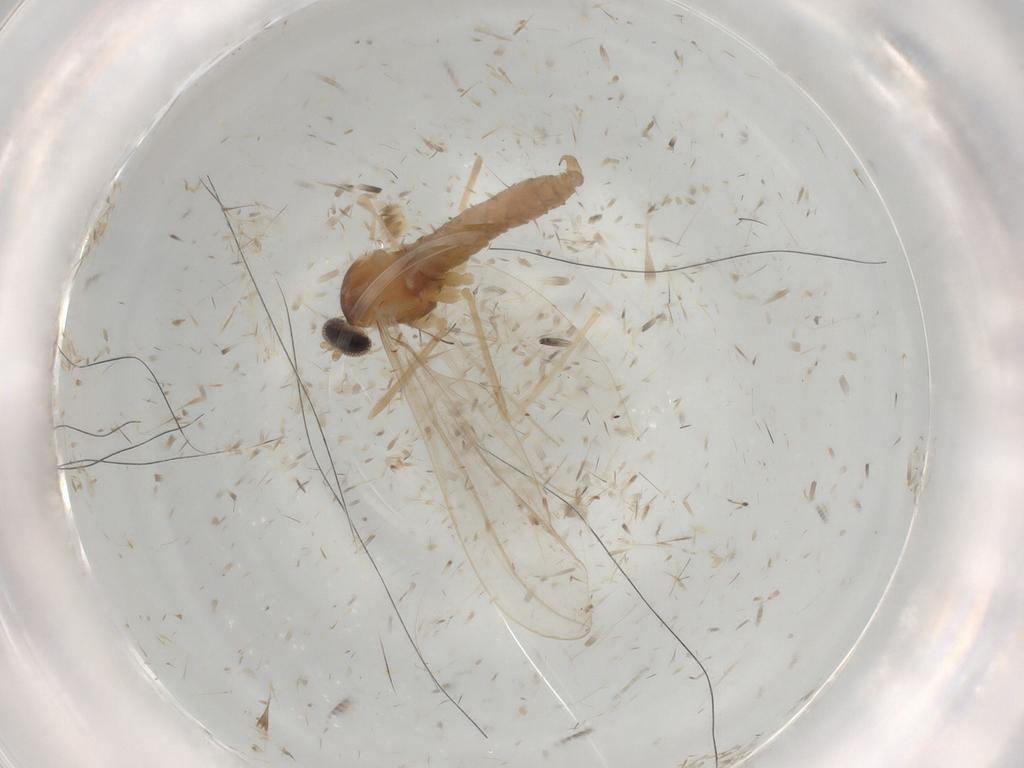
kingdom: Animalia
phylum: Arthropoda
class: Insecta
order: Diptera
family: Cecidomyiidae
